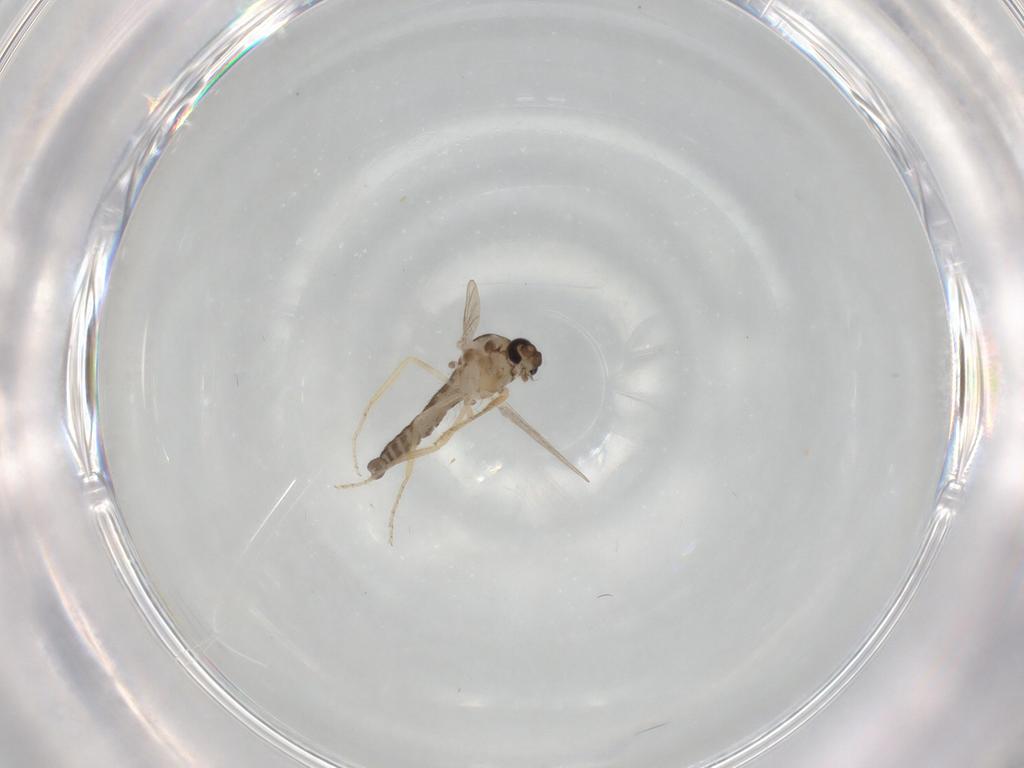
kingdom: Animalia
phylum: Arthropoda
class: Insecta
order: Diptera
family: Ceratopogonidae
